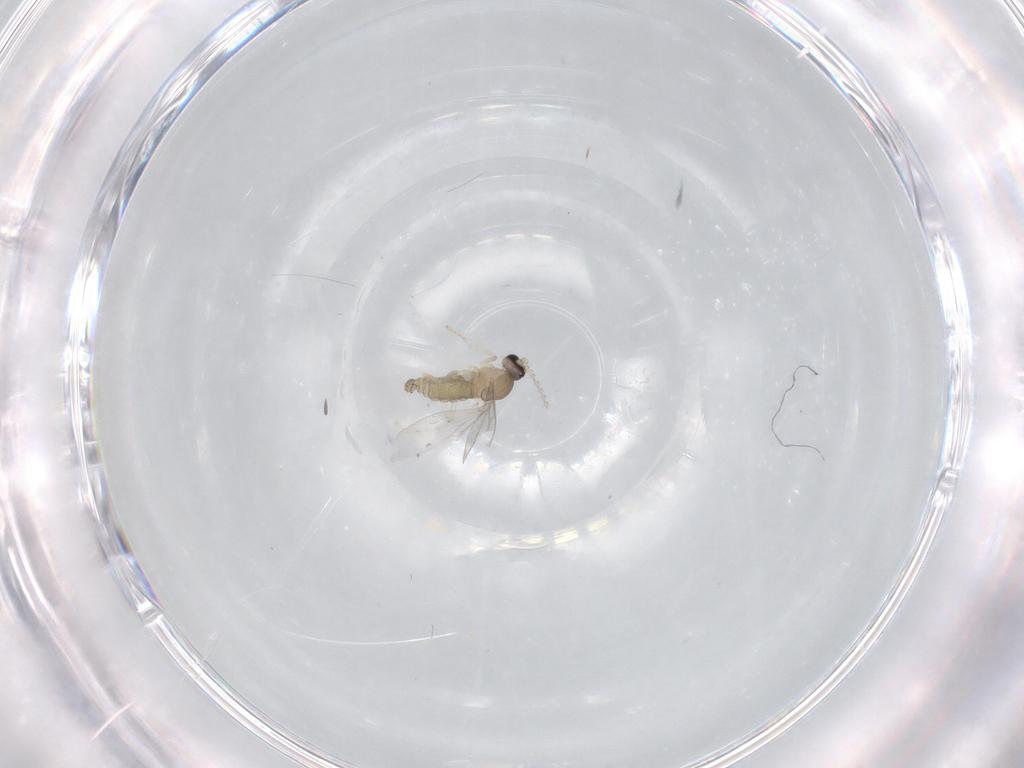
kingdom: Animalia
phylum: Arthropoda
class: Insecta
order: Diptera
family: Cecidomyiidae
